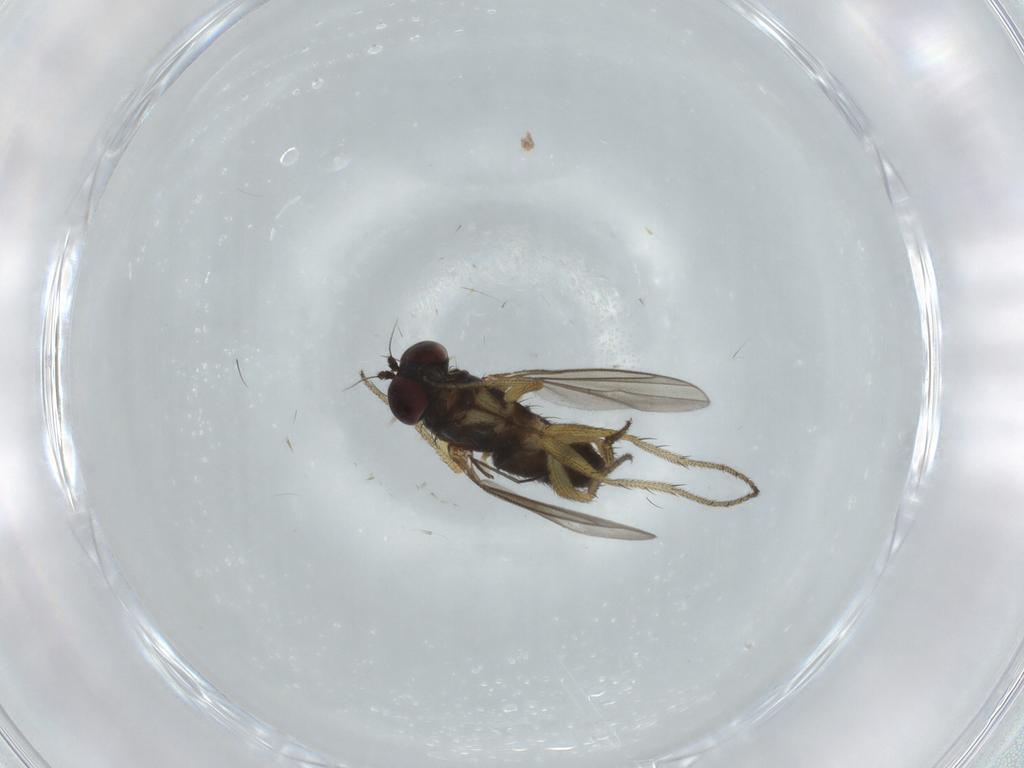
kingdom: Animalia
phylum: Arthropoda
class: Insecta
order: Diptera
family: Dolichopodidae
